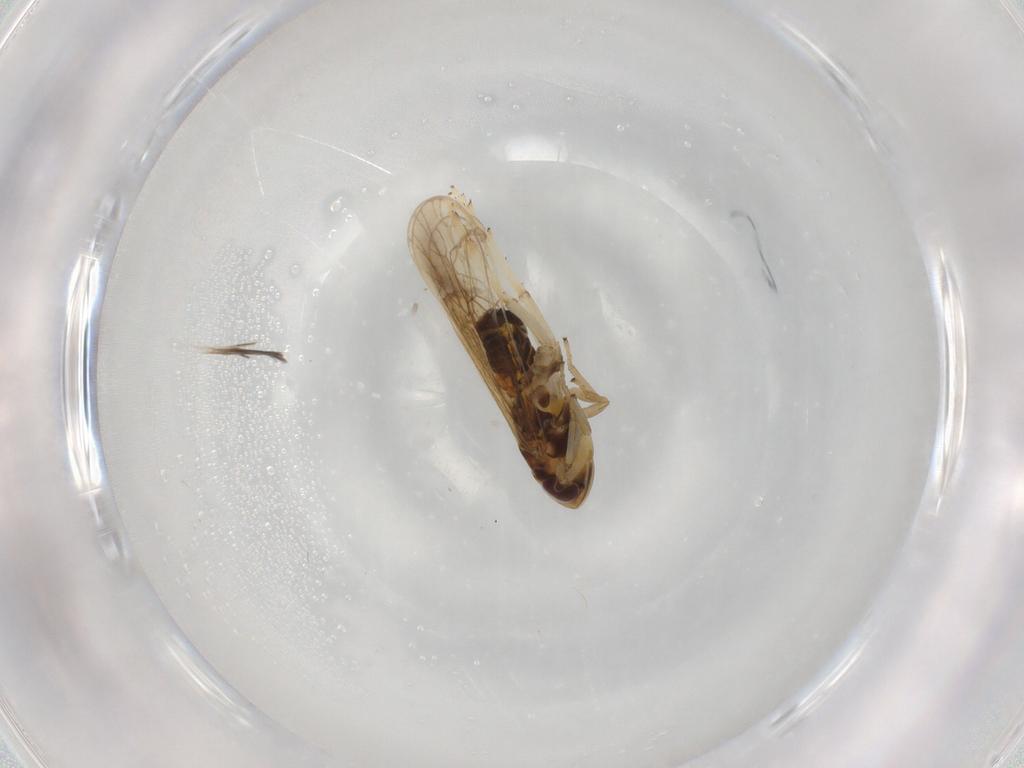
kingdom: Animalia
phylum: Arthropoda
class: Insecta
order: Hemiptera
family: Delphacidae
